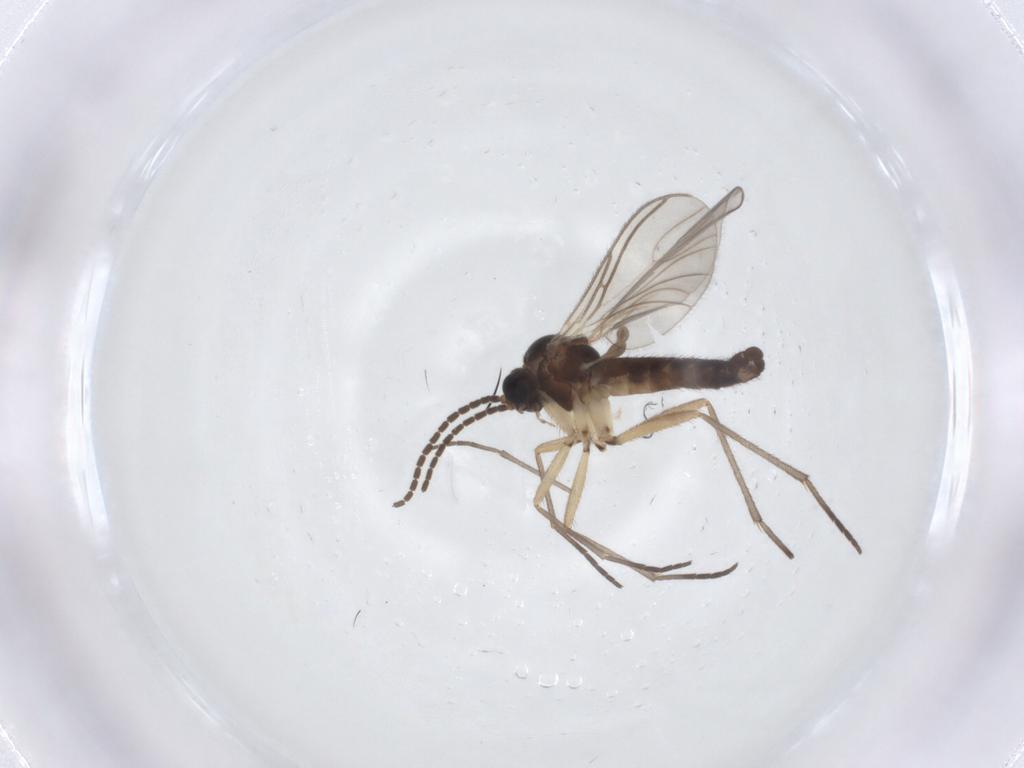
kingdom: Animalia
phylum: Arthropoda
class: Insecta
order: Diptera
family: Sciaridae
